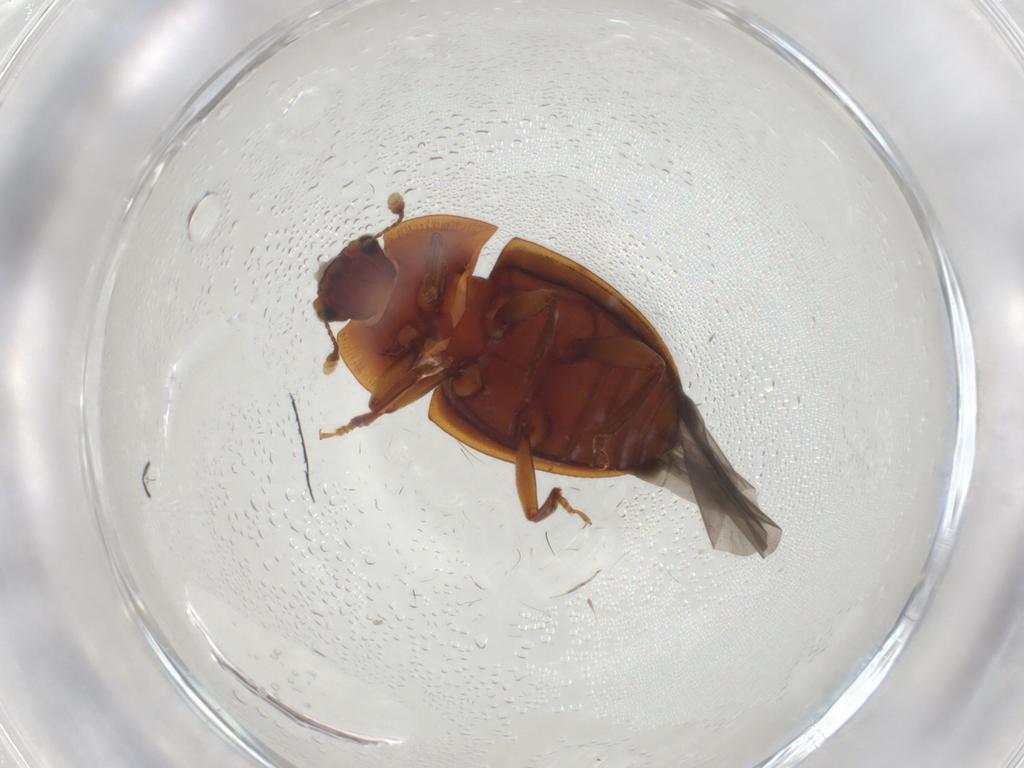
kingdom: Animalia
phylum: Arthropoda
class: Insecta
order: Coleoptera
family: Nitidulidae
